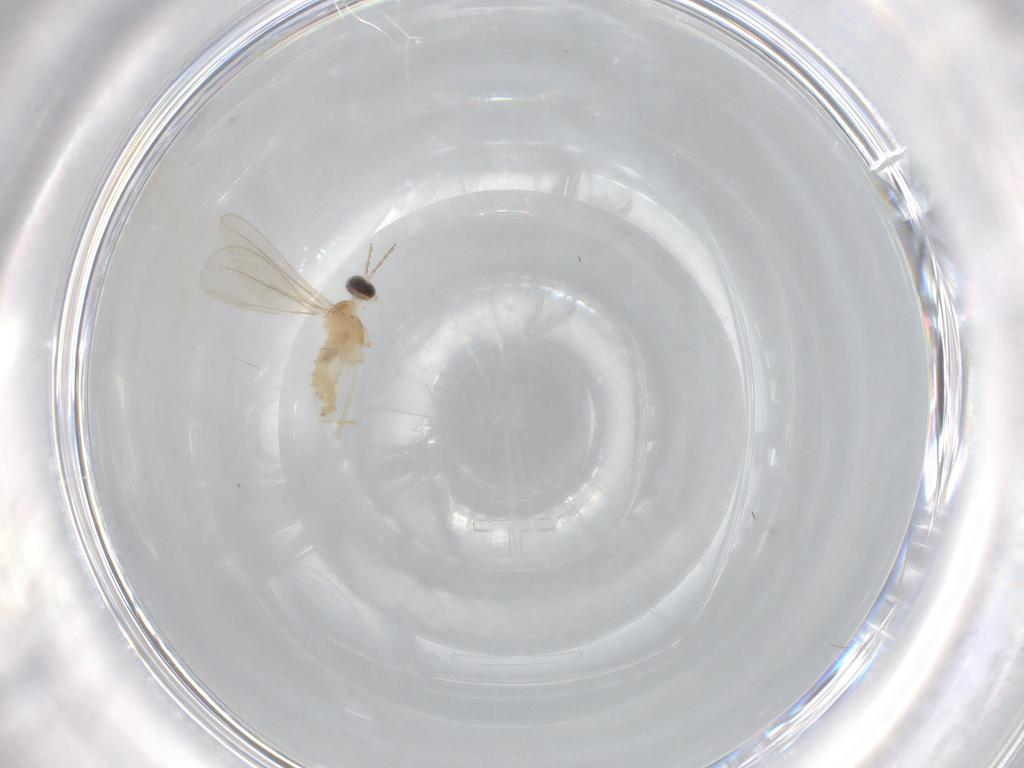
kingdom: Animalia
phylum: Arthropoda
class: Insecta
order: Diptera
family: Cecidomyiidae
